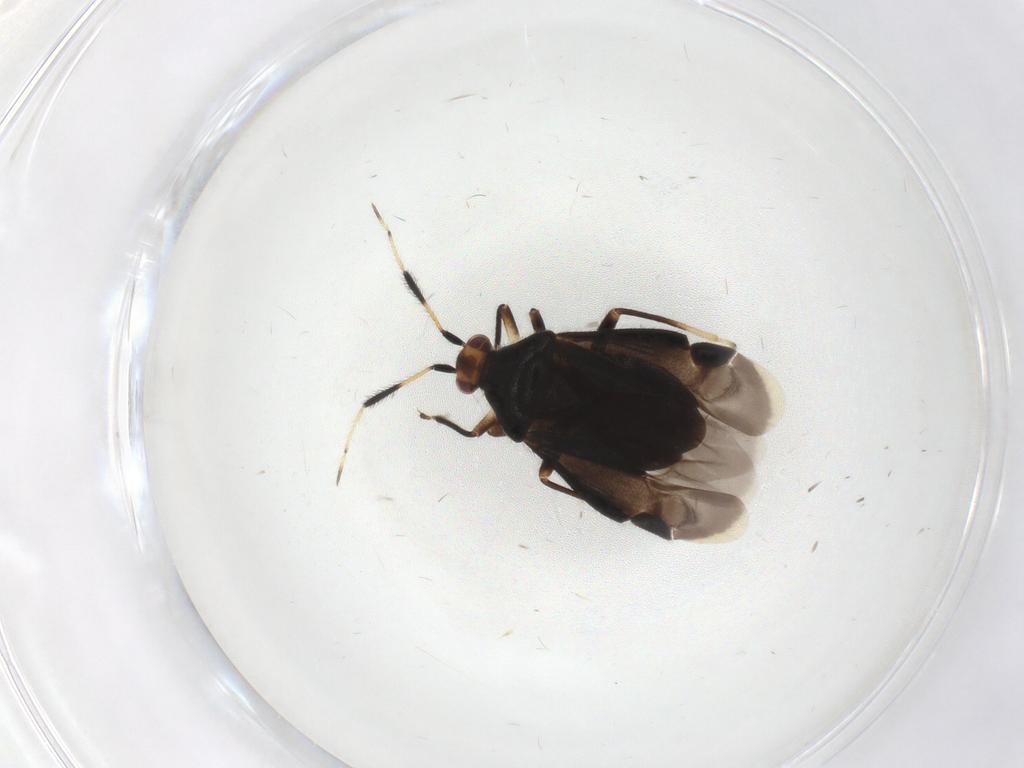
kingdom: Animalia
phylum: Arthropoda
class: Insecta
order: Hemiptera
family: Miridae
